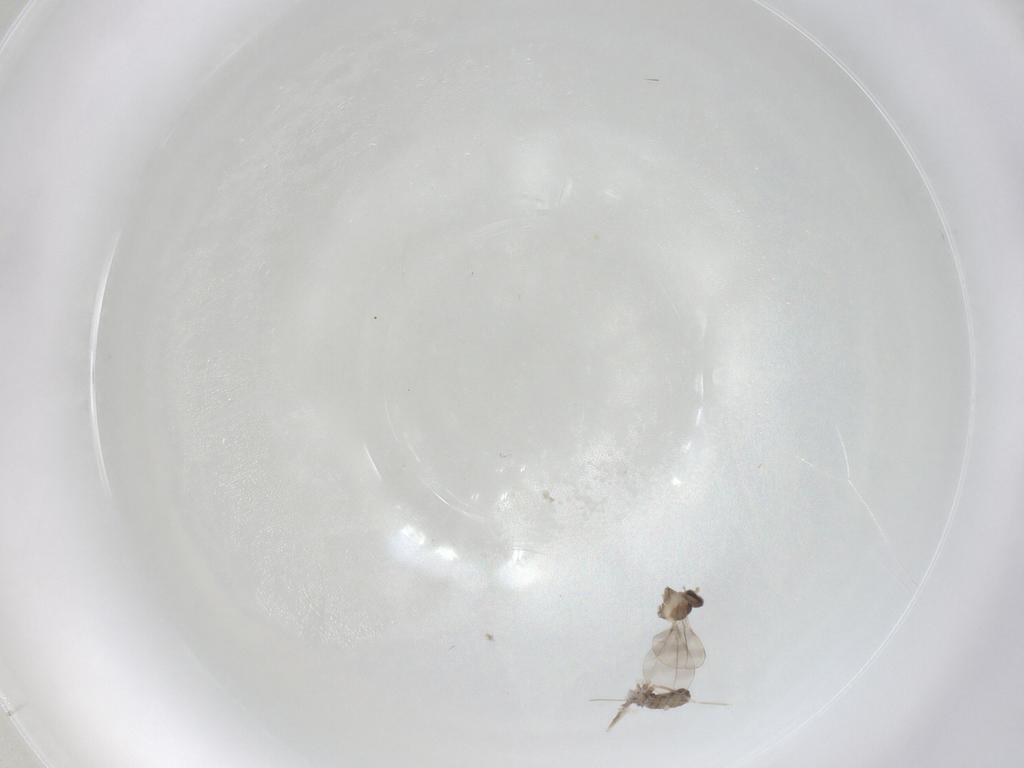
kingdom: Animalia
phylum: Arthropoda
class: Insecta
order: Diptera
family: Cecidomyiidae
